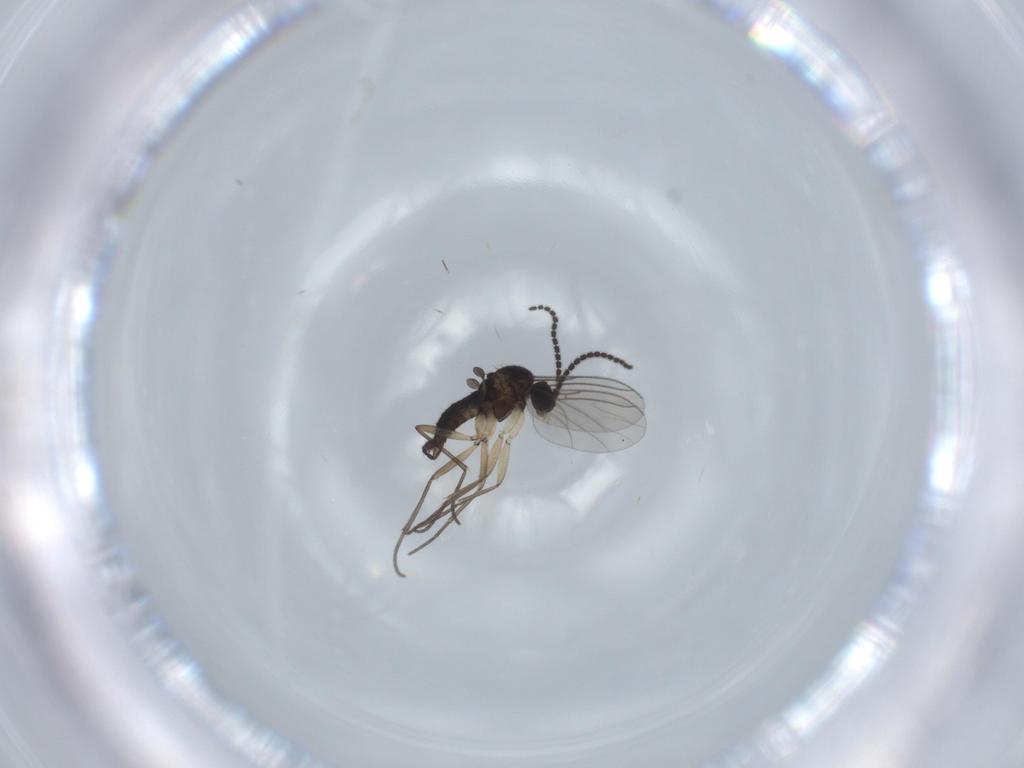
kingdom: Animalia
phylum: Arthropoda
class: Insecta
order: Diptera
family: Sciaridae
